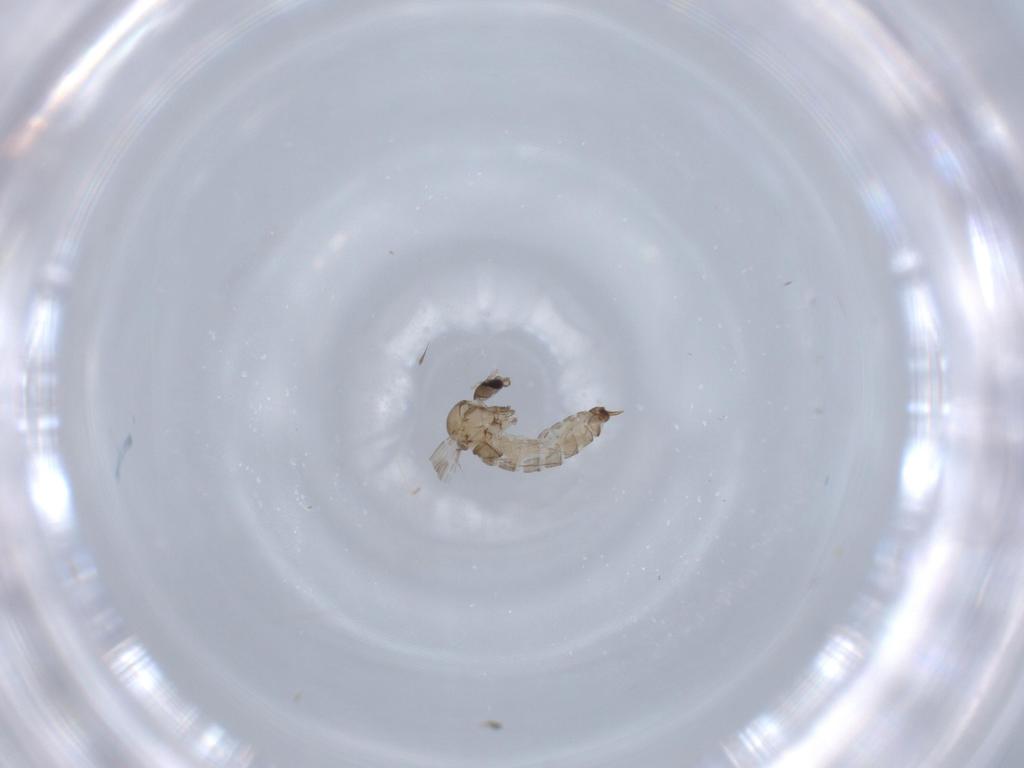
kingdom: Animalia
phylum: Arthropoda
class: Insecta
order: Diptera
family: Psychodidae
